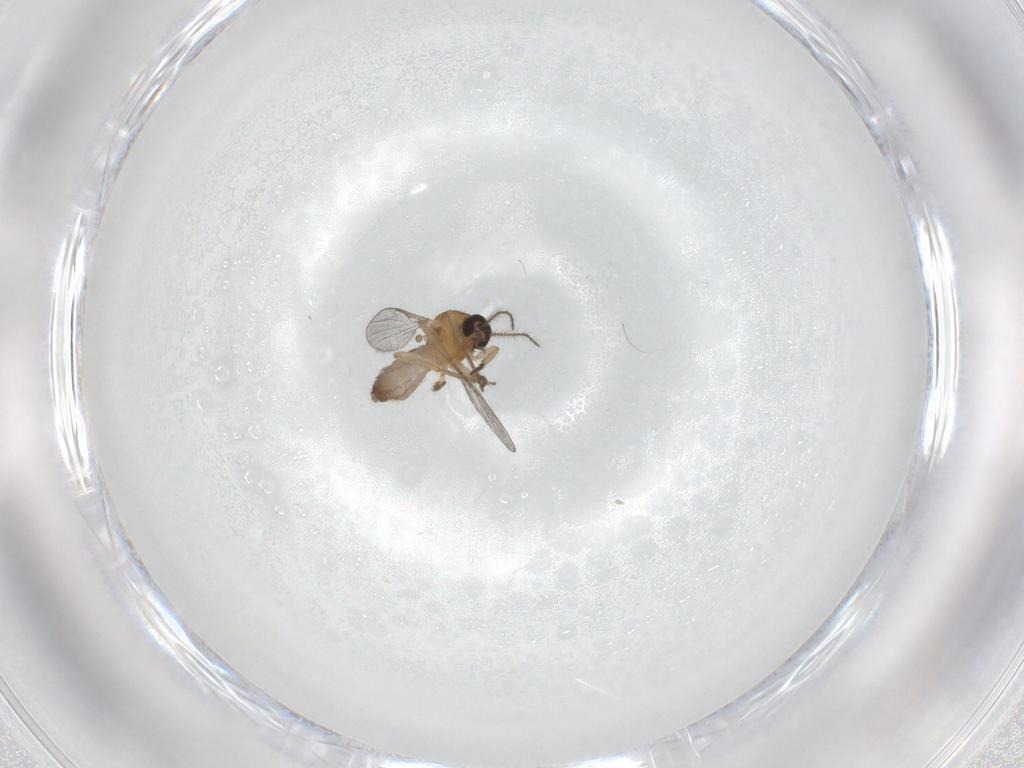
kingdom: Animalia
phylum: Arthropoda
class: Insecta
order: Diptera
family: Ceratopogonidae
